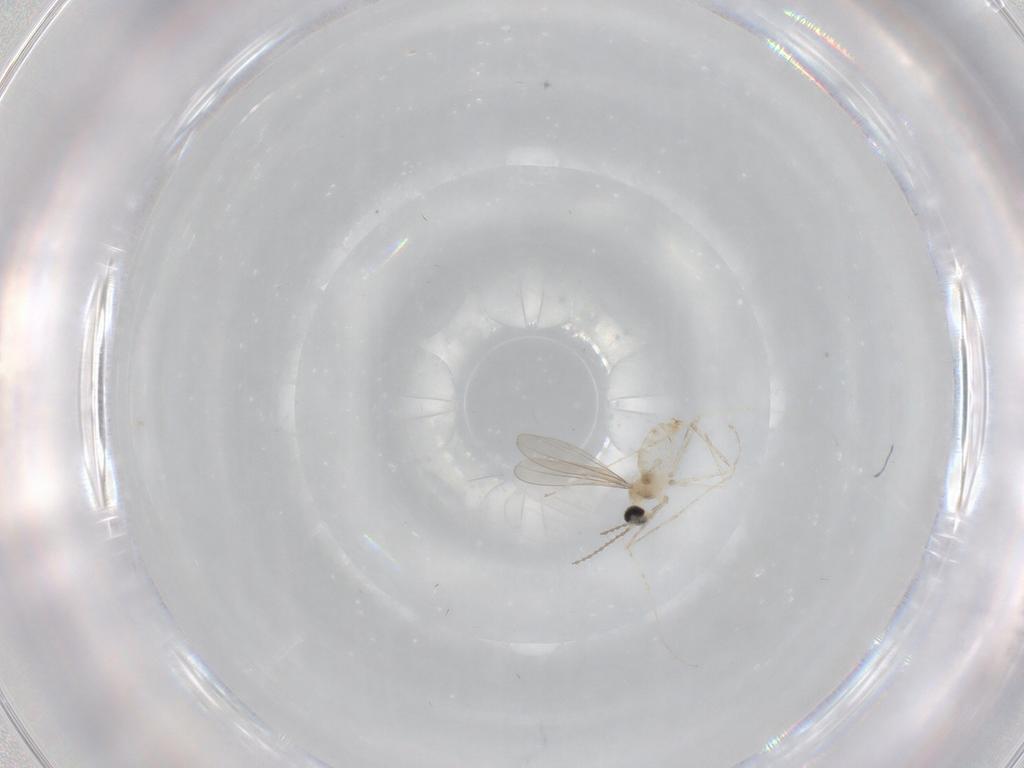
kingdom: Animalia
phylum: Arthropoda
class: Insecta
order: Diptera
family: Cecidomyiidae
